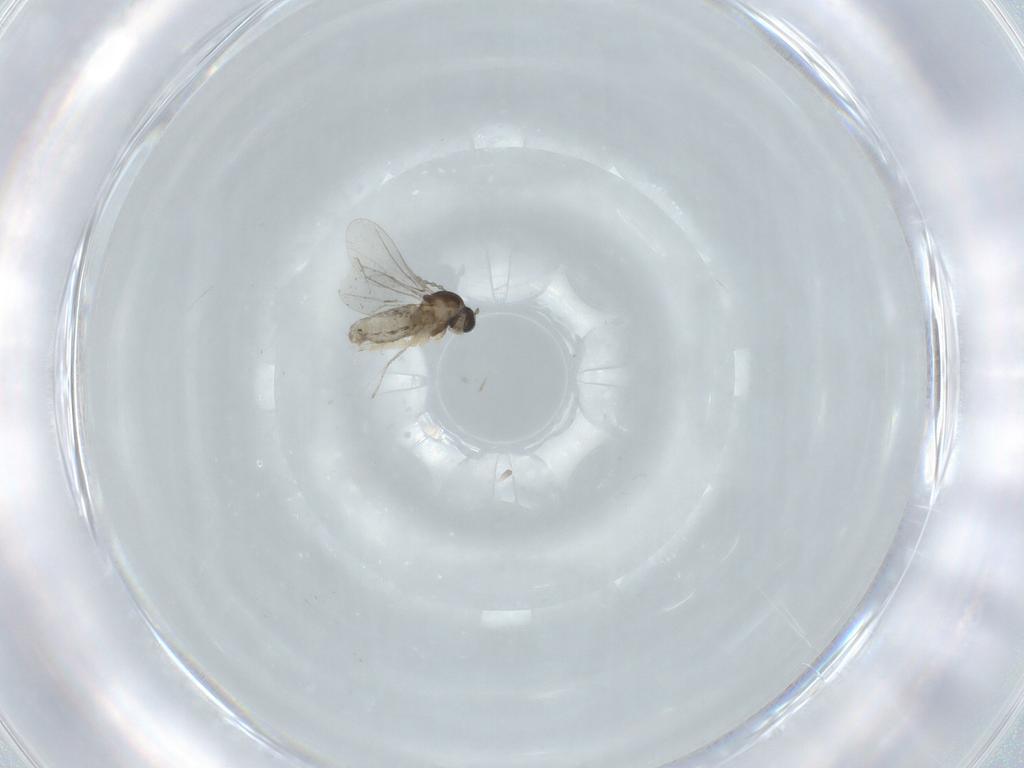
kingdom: Animalia
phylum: Arthropoda
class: Insecta
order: Diptera
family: Cecidomyiidae
